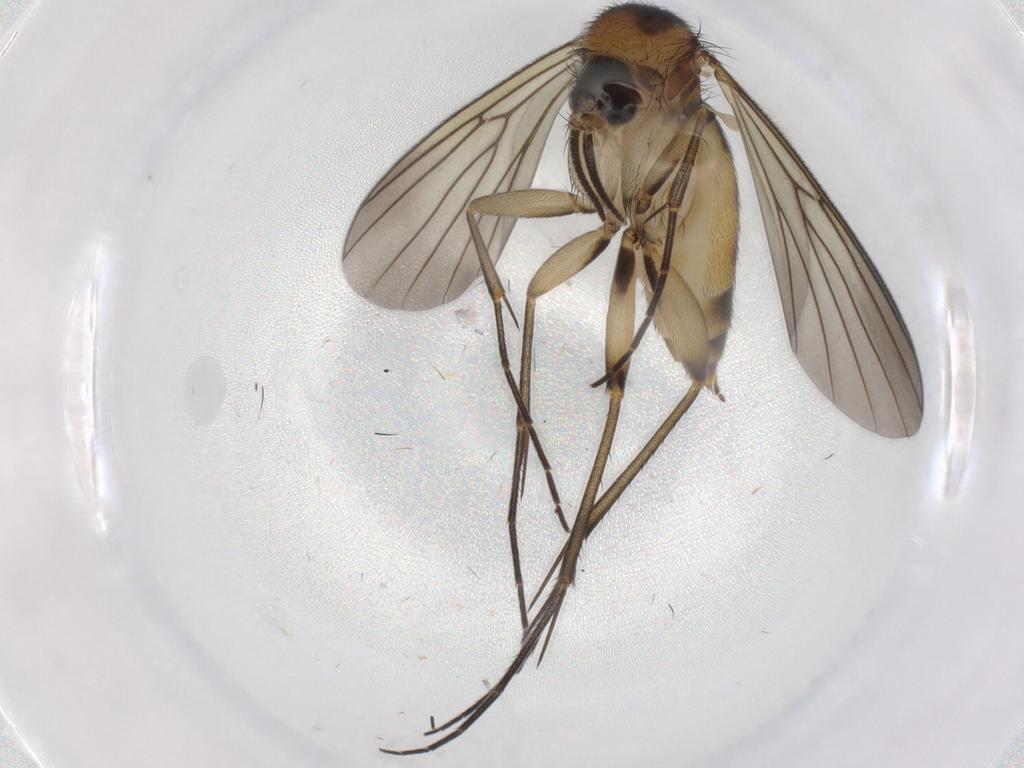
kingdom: Animalia
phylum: Arthropoda
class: Insecta
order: Diptera
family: Mycetophilidae
